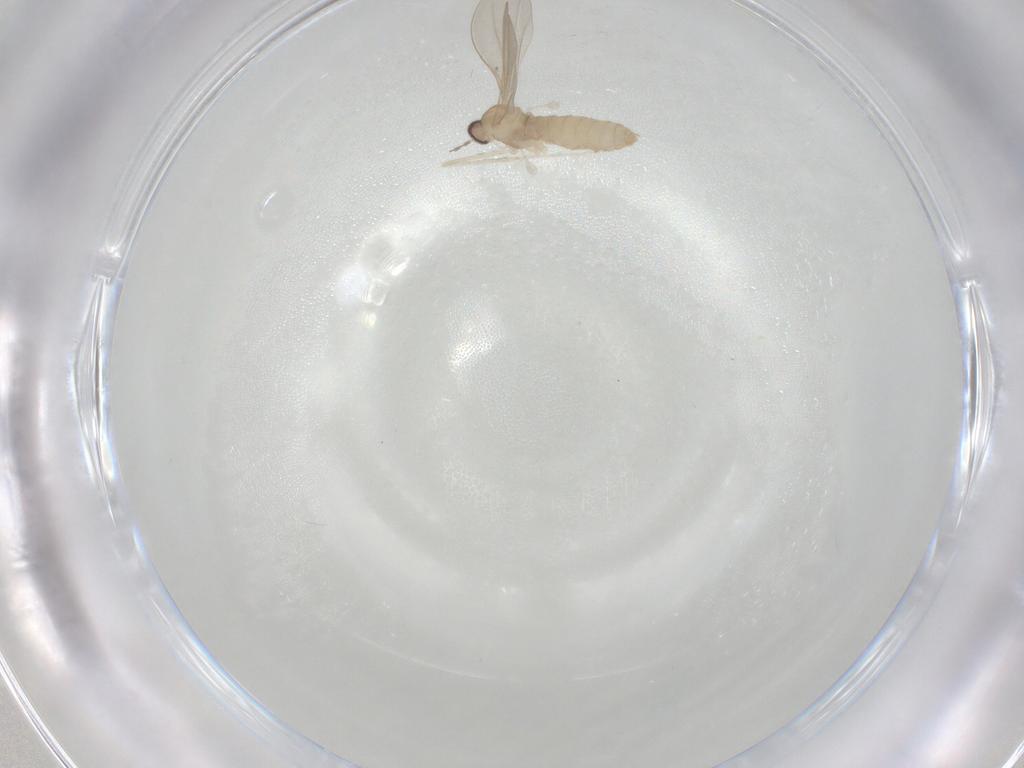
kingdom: Animalia
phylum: Arthropoda
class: Insecta
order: Diptera
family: Cecidomyiidae
